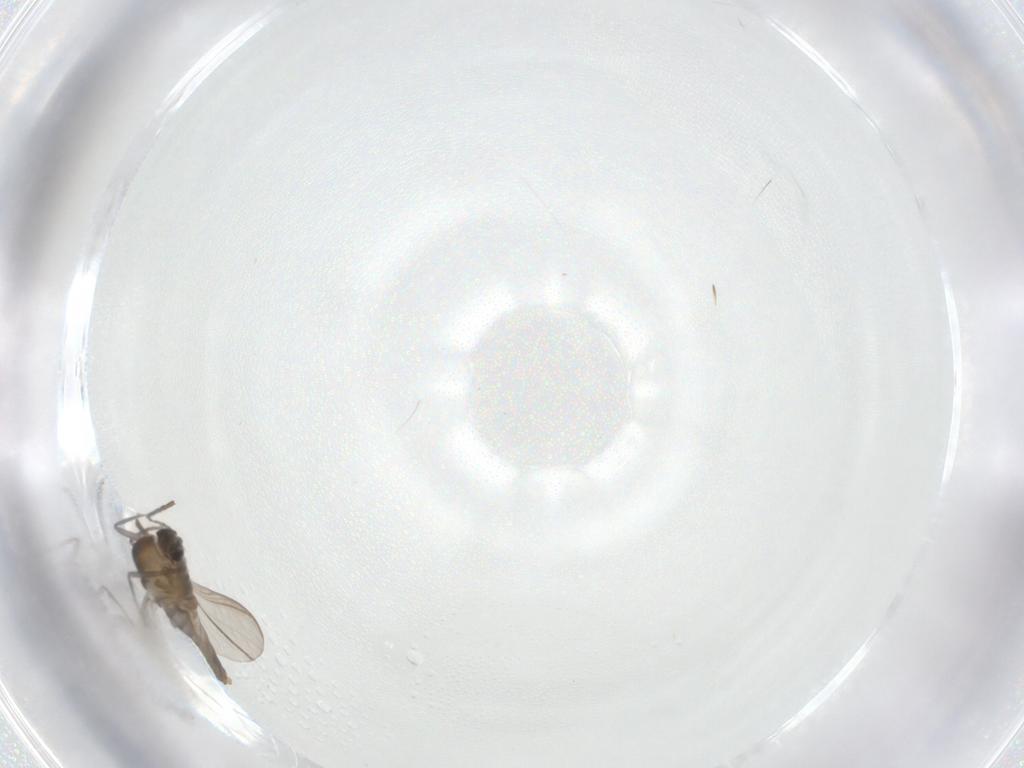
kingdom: Animalia
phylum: Arthropoda
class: Insecta
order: Diptera
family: Chironomidae
